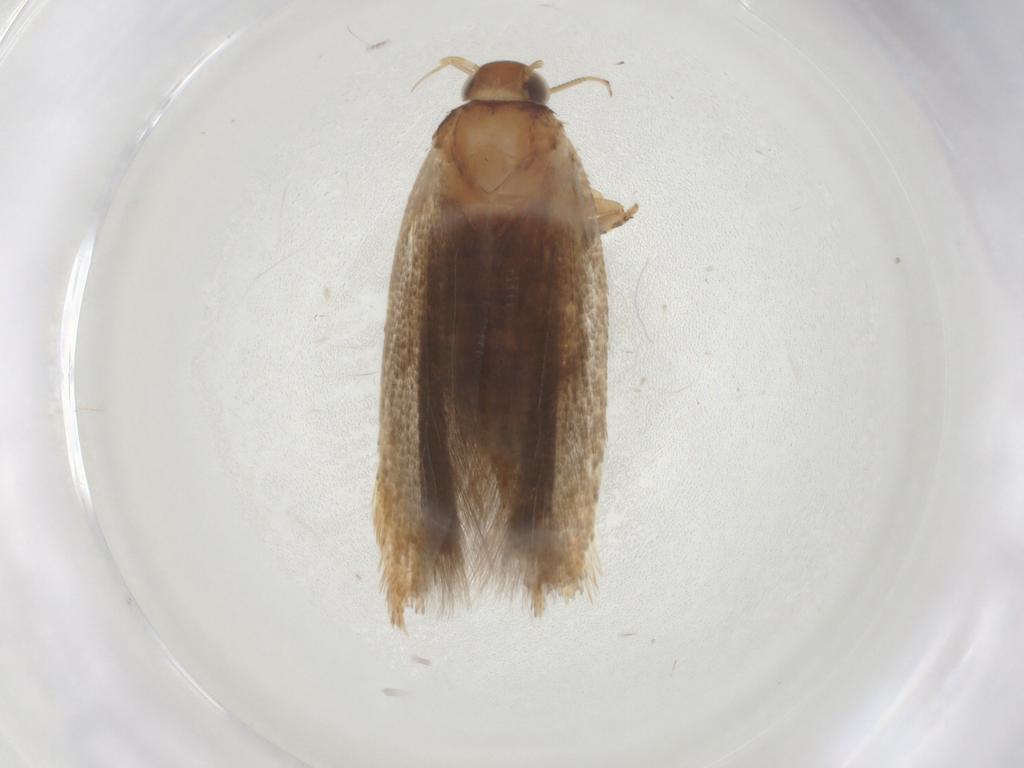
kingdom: Animalia
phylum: Arthropoda
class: Insecta
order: Lepidoptera
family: Gelechiidae
